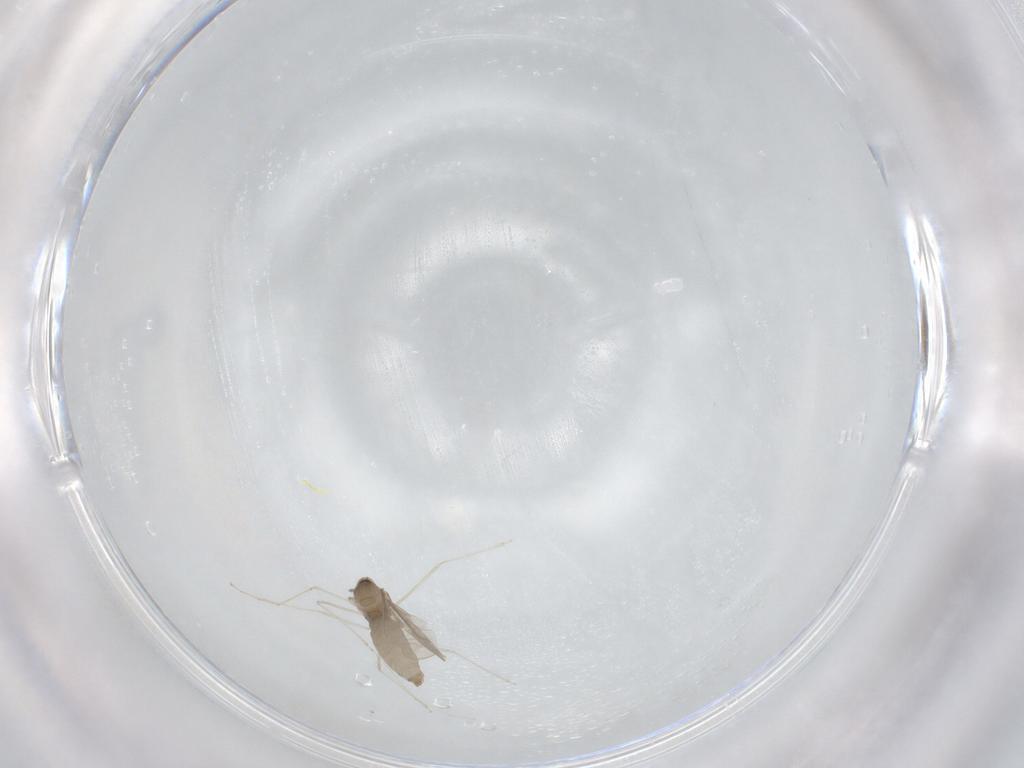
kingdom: Animalia
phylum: Arthropoda
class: Insecta
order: Diptera
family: Cecidomyiidae
